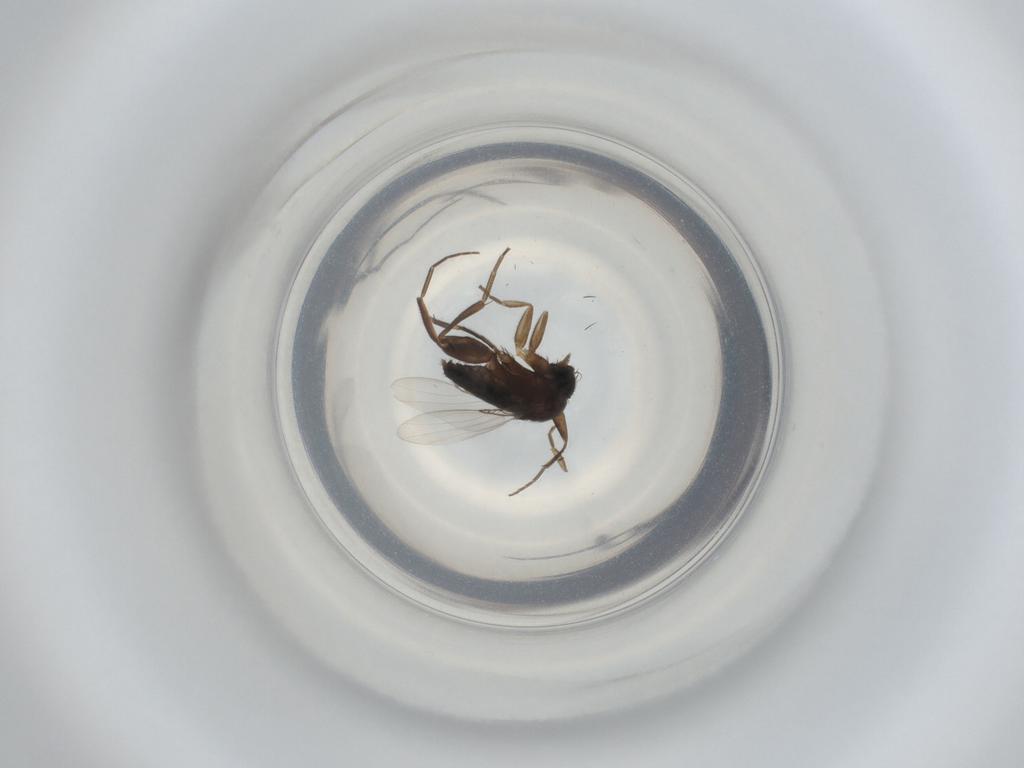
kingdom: Animalia
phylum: Arthropoda
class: Insecta
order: Diptera
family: Phoridae
